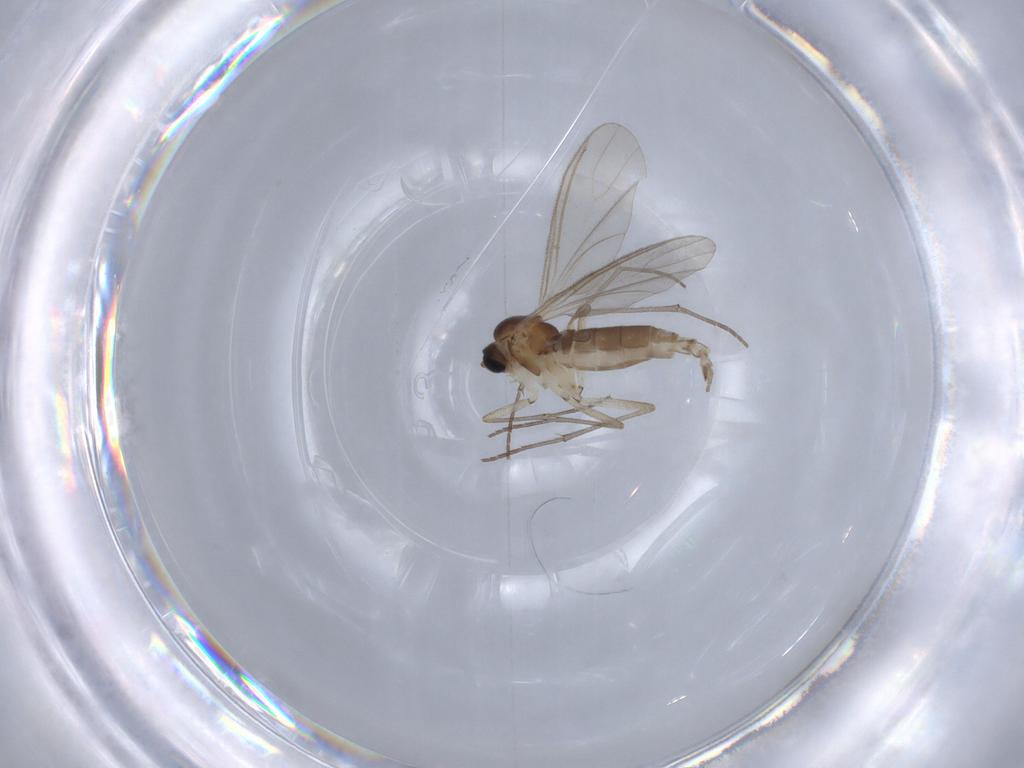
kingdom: Animalia
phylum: Arthropoda
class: Insecta
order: Diptera
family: Sciaridae
